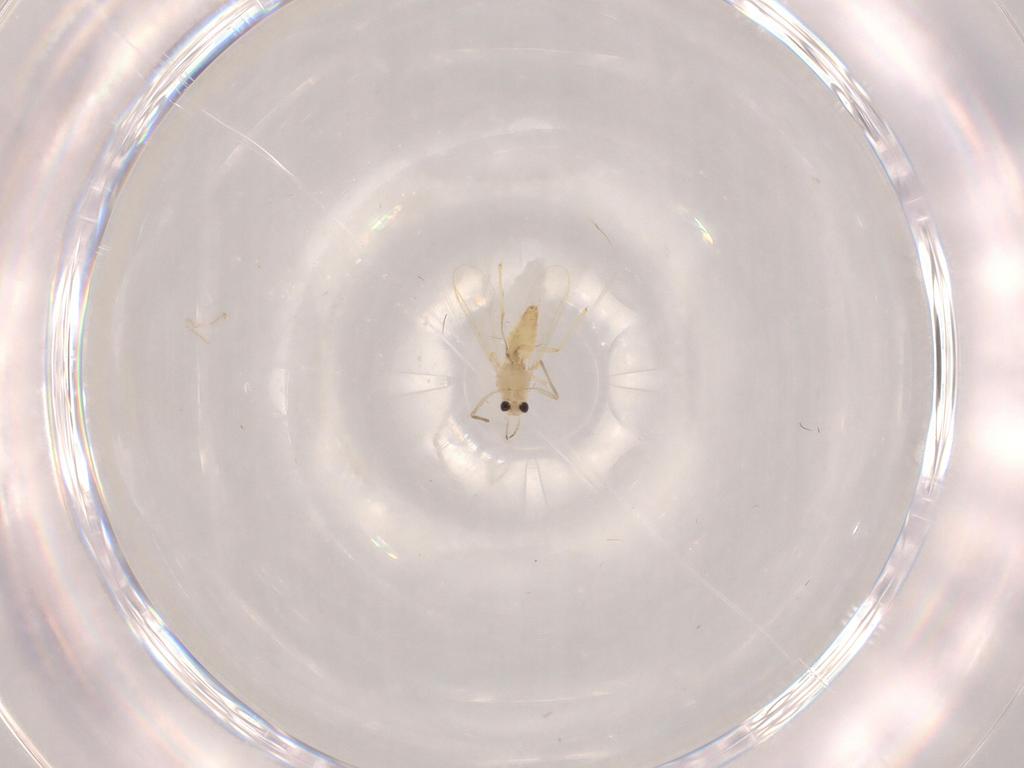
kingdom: Animalia
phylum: Arthropoda
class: Insecta
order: Diptera
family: Chironomidae
